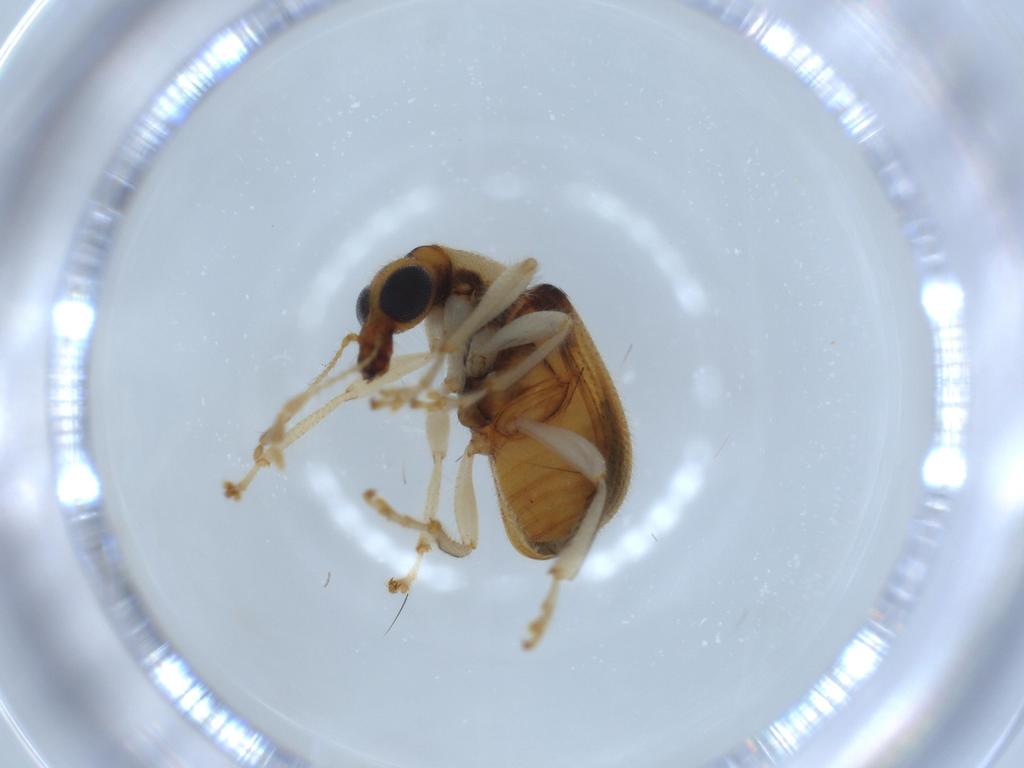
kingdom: Animalia
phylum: Arthropoda
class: Insecta
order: Coleoptera
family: Attelabidae
